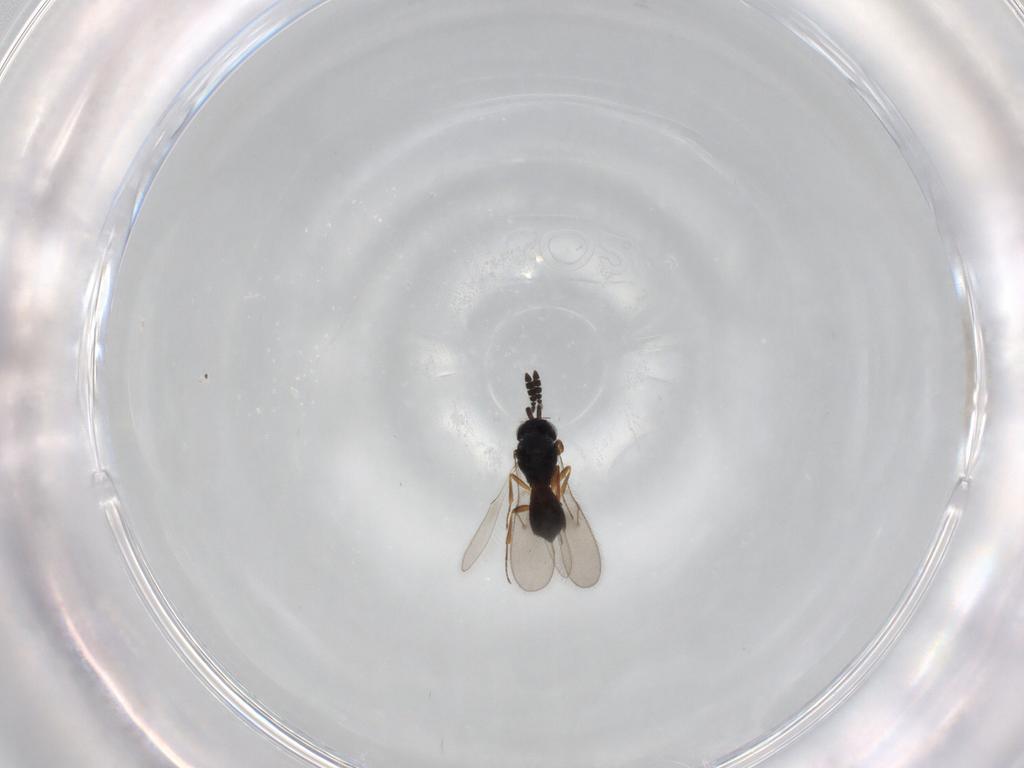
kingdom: Animalia
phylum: Arthropoda
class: Insecta
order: Hymenoptera
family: Scelionidae
